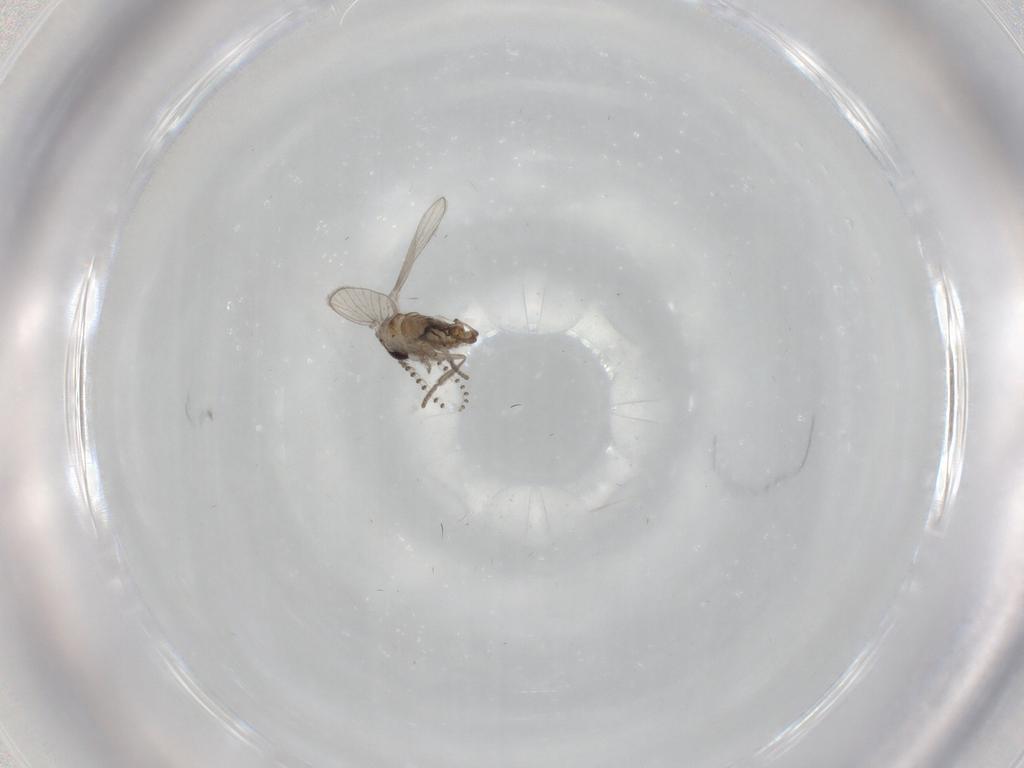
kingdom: Animalia
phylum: Arthropoda
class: Insecta
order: Diptera
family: Psychodidae
